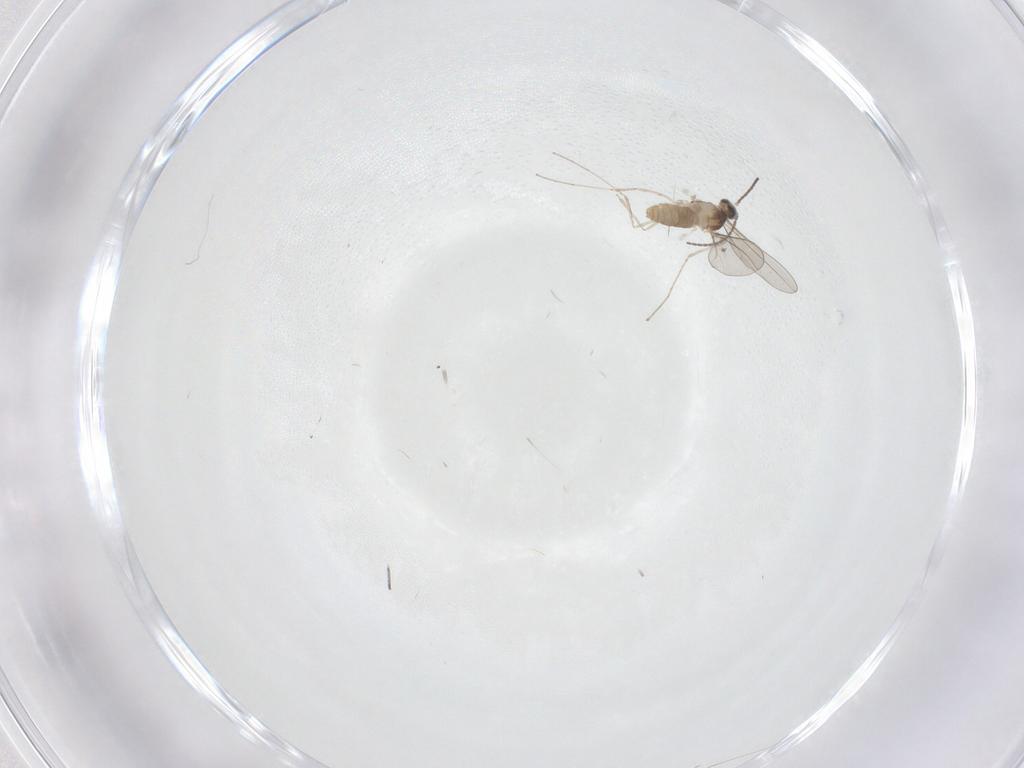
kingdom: Animalia
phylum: Arthropoda
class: Insecta
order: Diptera
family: Cecidomyiidae
